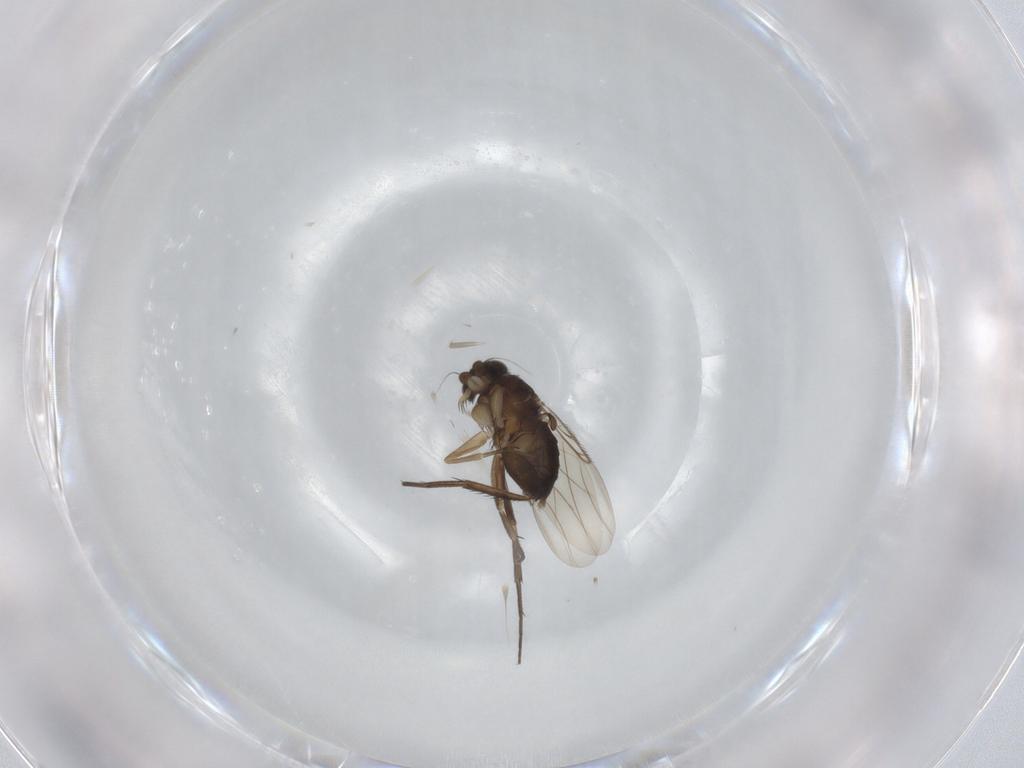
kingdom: Animalia
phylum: Arthropoda
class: Insecta
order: Diptera
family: Phoridae
